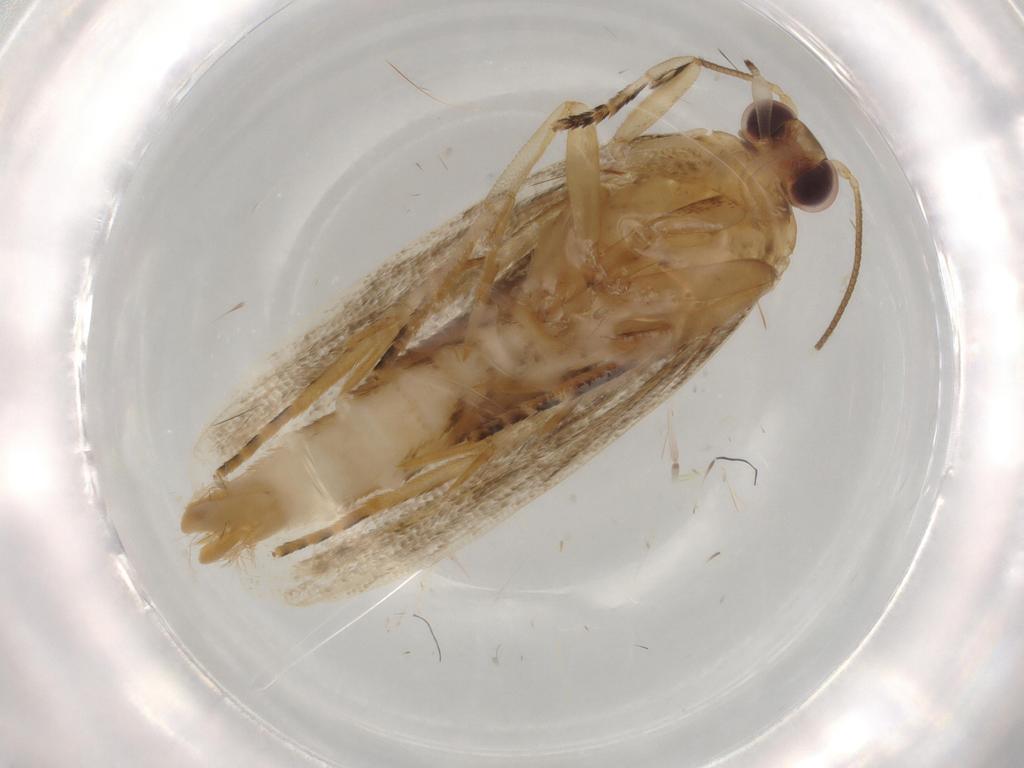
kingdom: Animalia
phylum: Arthropoda
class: Insecta
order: Lepidoptera
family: Tortricidae
